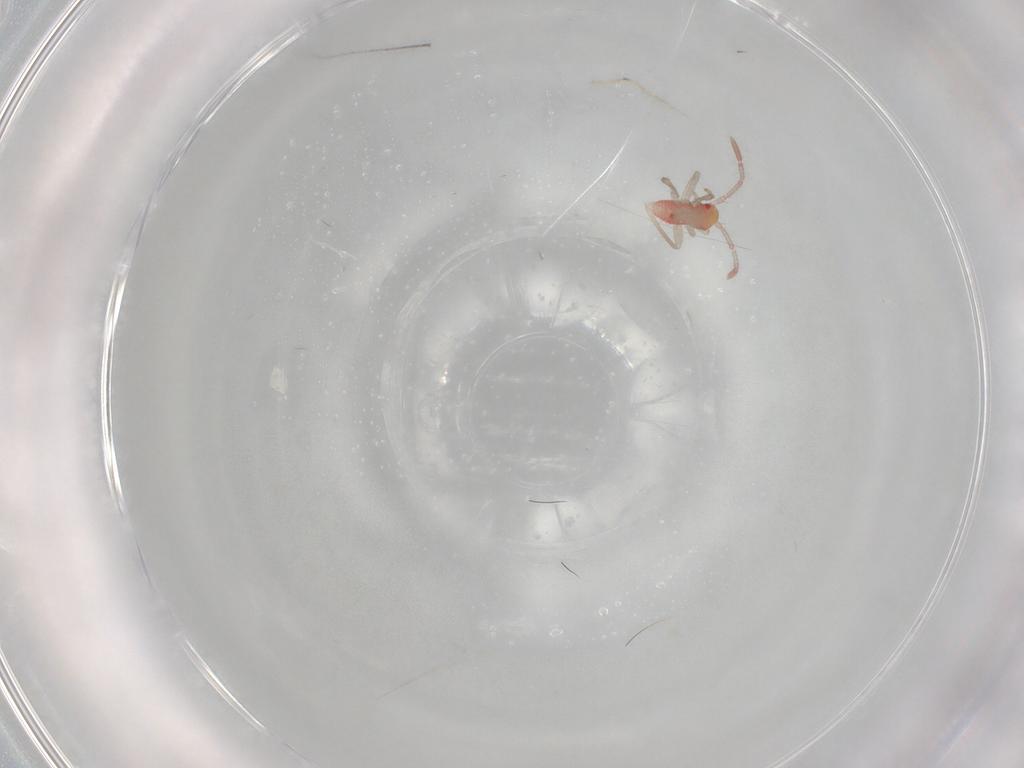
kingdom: Animalia
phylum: Arthropoda
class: Insecta
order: Hemiptera
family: Miridae
